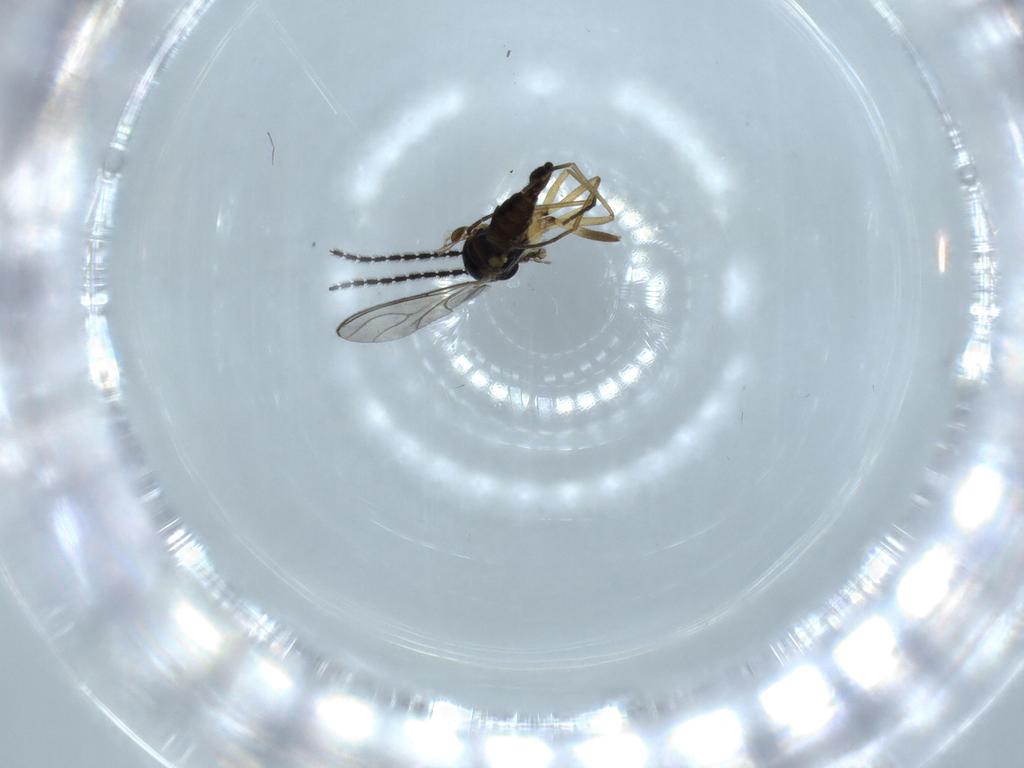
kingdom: Animalia
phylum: Arthropoda
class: Insecta
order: Diptera
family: Sciaridae
